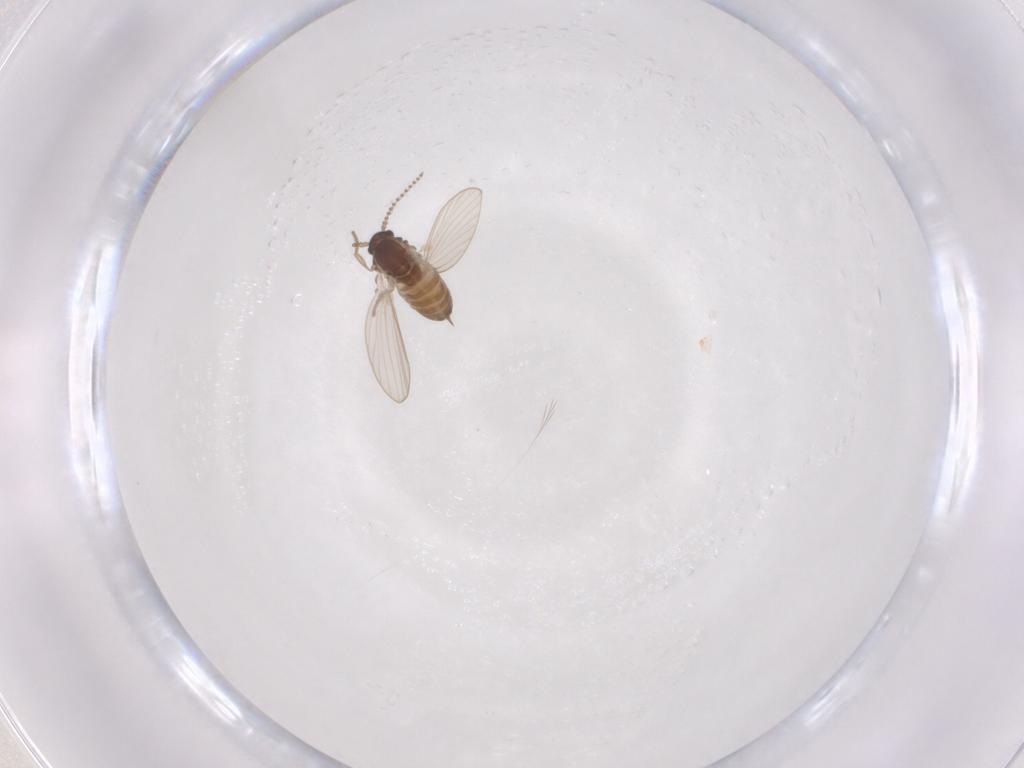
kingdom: Animalia
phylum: Arthropoda
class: Insecta
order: Diptera
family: Psychodidae
